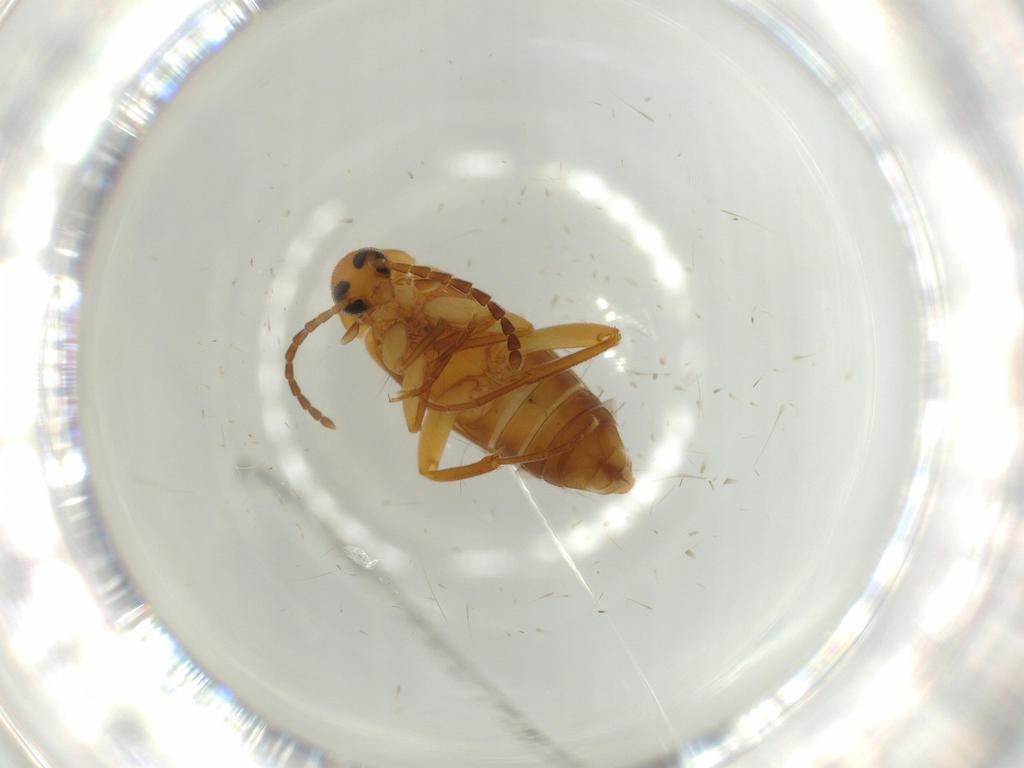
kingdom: Animalia
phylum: Arthropoda
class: Insecta
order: Coleoptera
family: Scraptiidae
